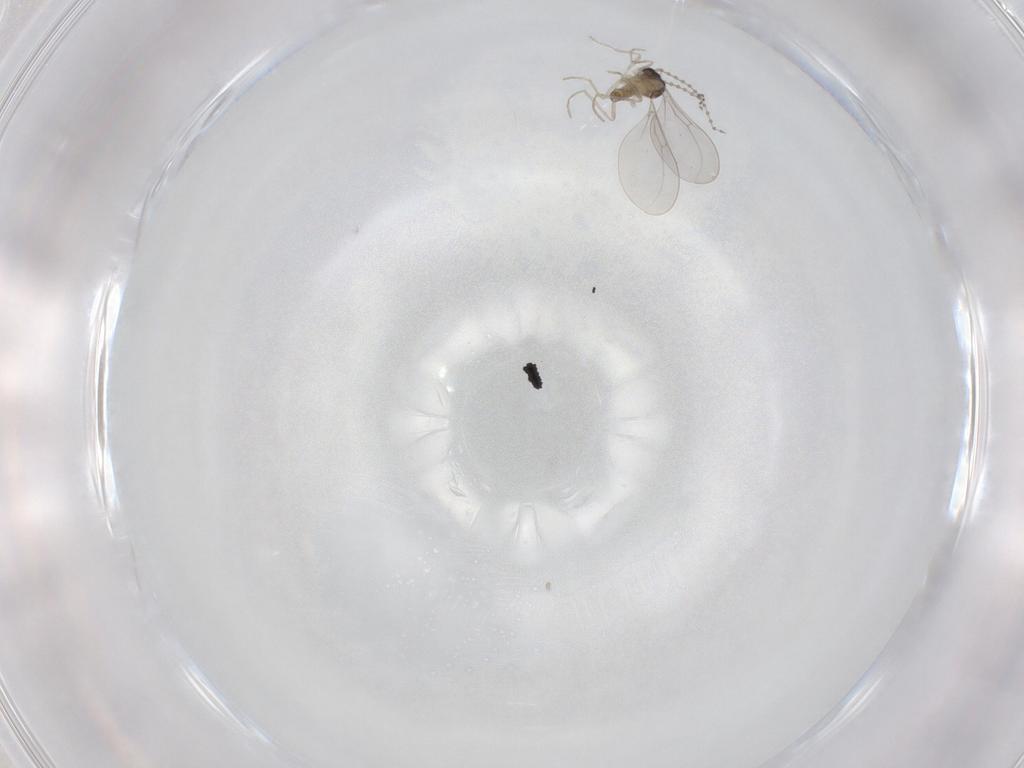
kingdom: Animalia
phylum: Arthropoda
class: Insecta
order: Diptera
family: Cecidomyiidae
